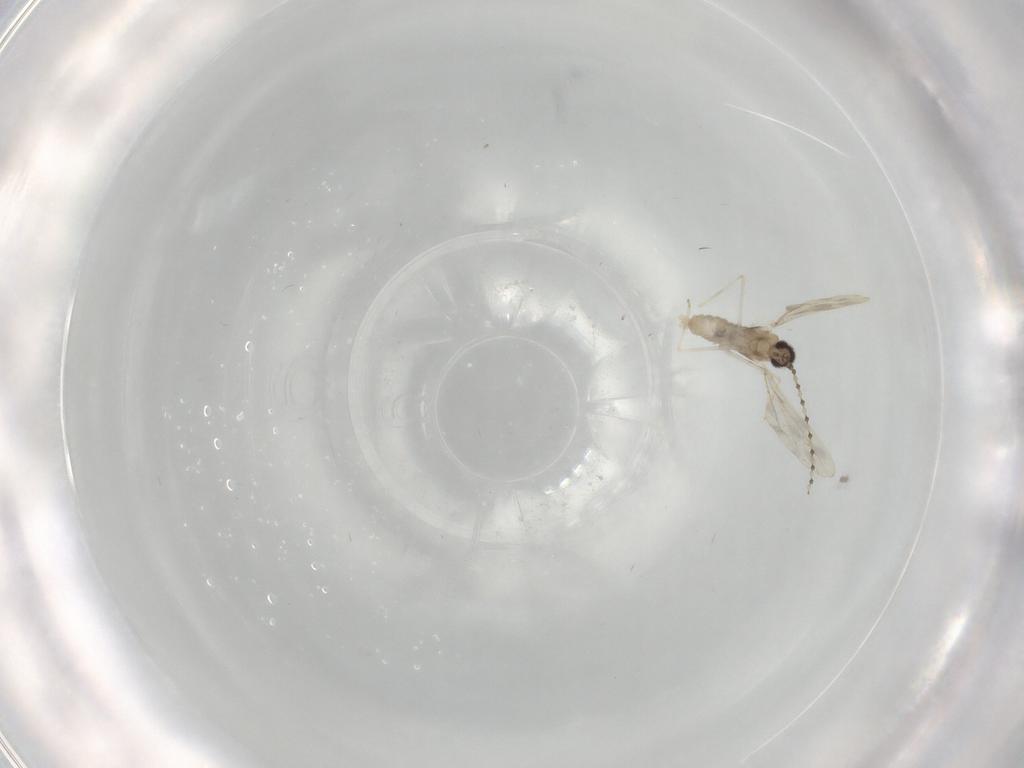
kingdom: Animalia
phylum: Arthropoda
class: Insecta
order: Diptera
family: Cecidomyiidae
